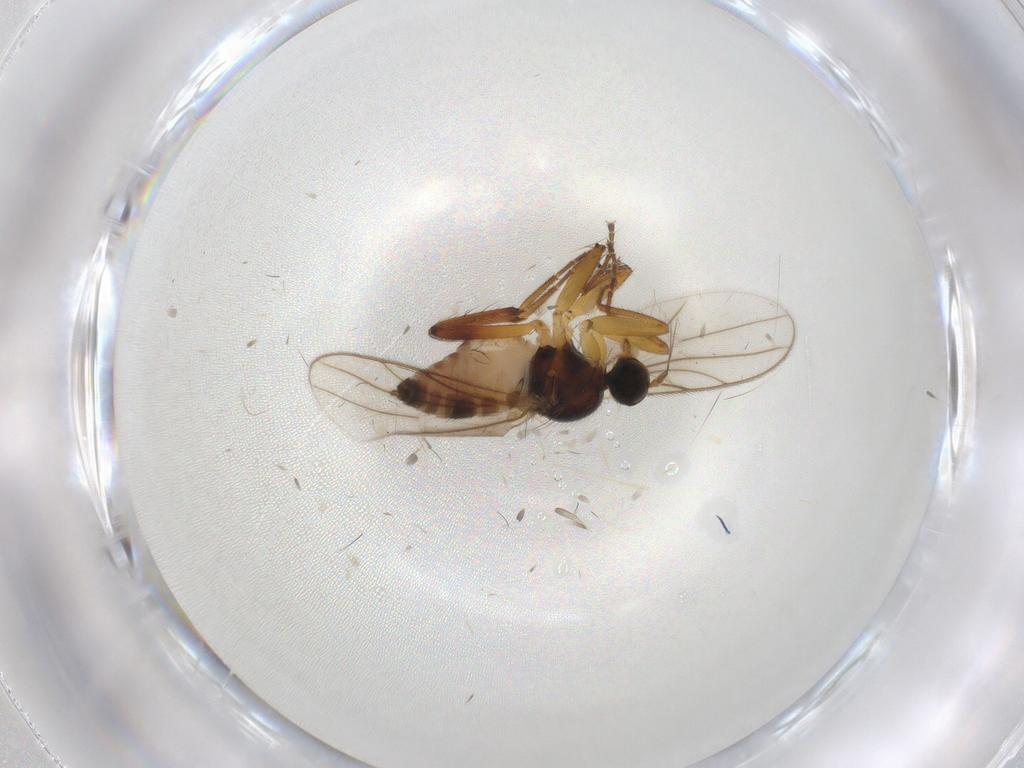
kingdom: Animalia
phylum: Arthropoda
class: Insecta
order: Diptera
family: Hybotidae
